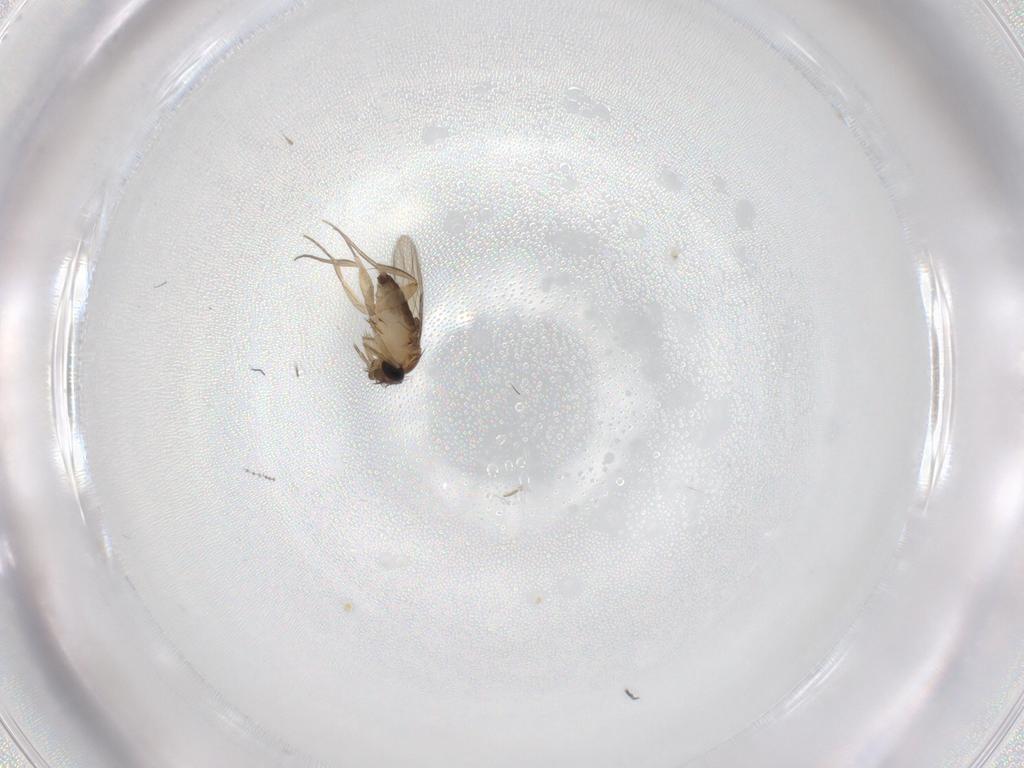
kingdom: Animalia
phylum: Arthropoda
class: Insecta
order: Diptera
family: Phoridae
